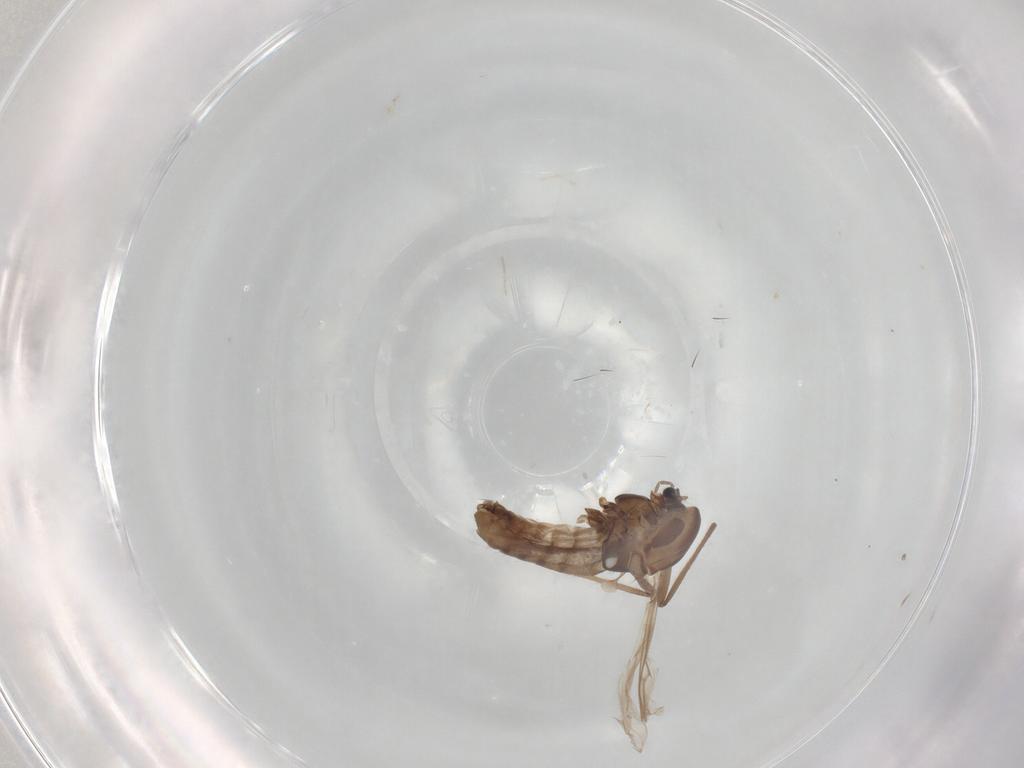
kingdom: Animalia
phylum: Arthropoda
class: Insecta
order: Diptera
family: Chironomidae
